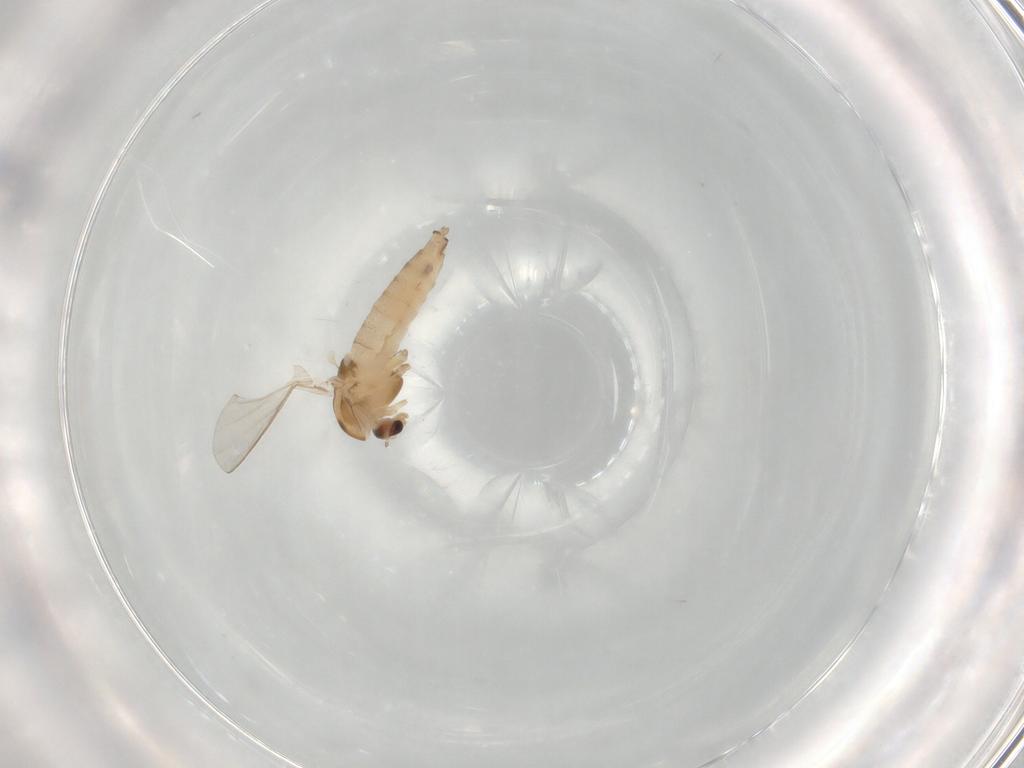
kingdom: Animalia
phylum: Arthropoda
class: Insecta
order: Diptera
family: Chironomidae
